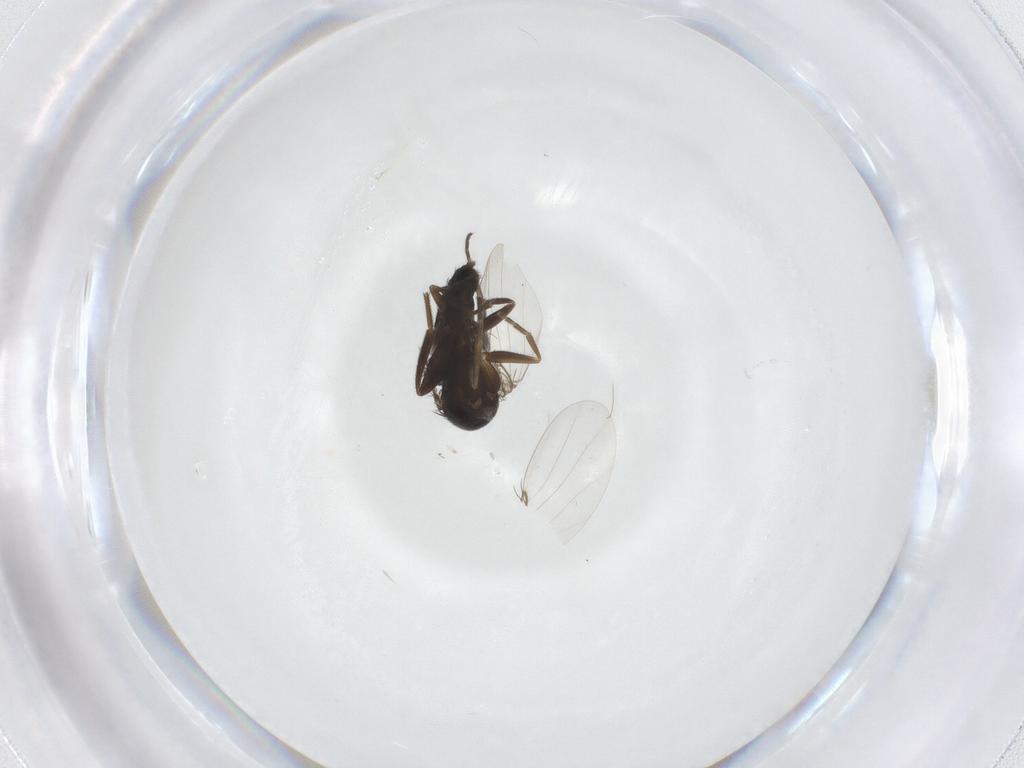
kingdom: Animalia
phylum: Arthropoda
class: Insecta
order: Diptera
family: Phoridae
